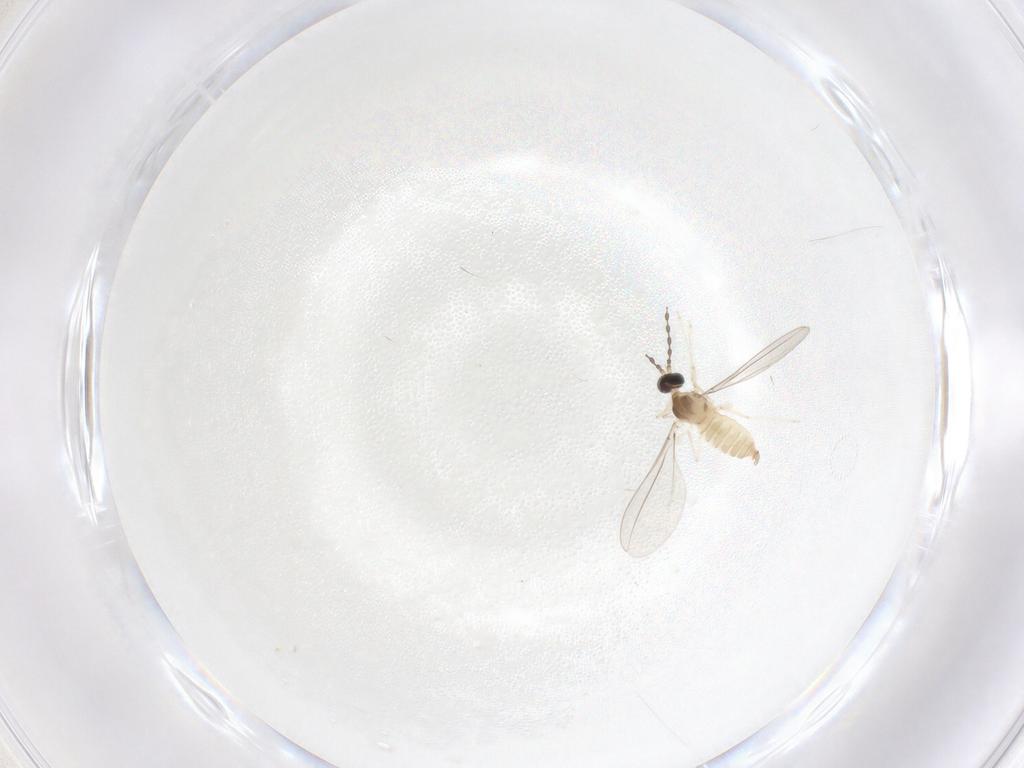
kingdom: Animalia
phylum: Arthropoda
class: Insecta
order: Diptera
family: Cecidomyiidae
